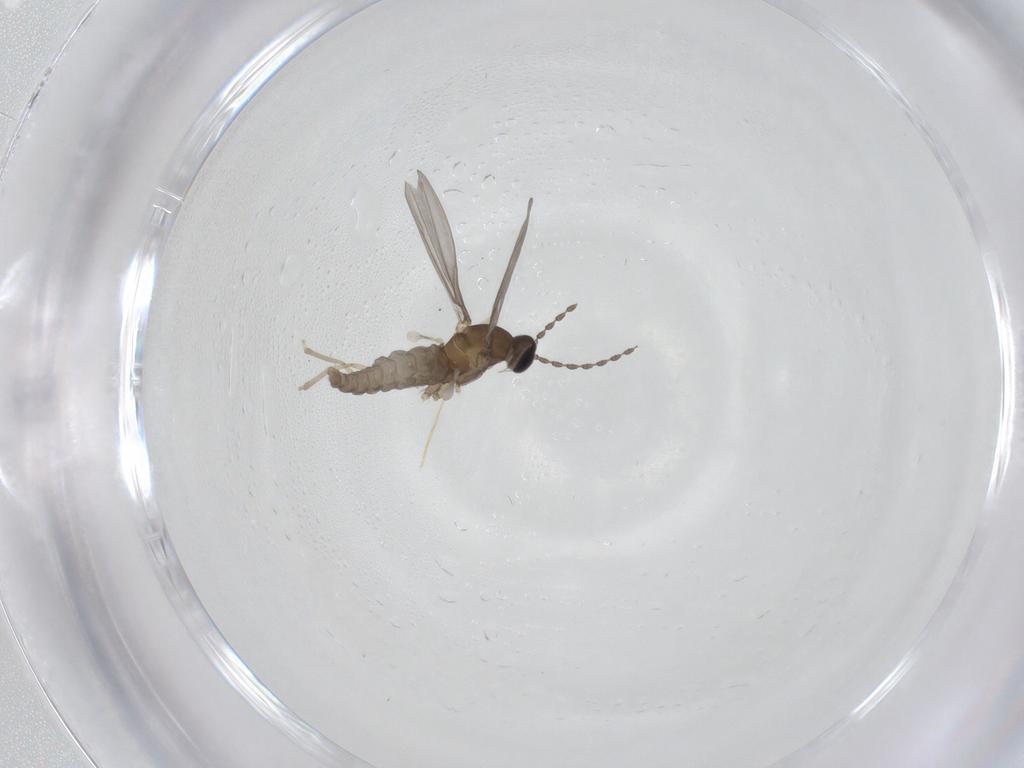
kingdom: Animalia
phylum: Arthropoda
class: Insecta
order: Diptera
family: Cecidomyiidae
